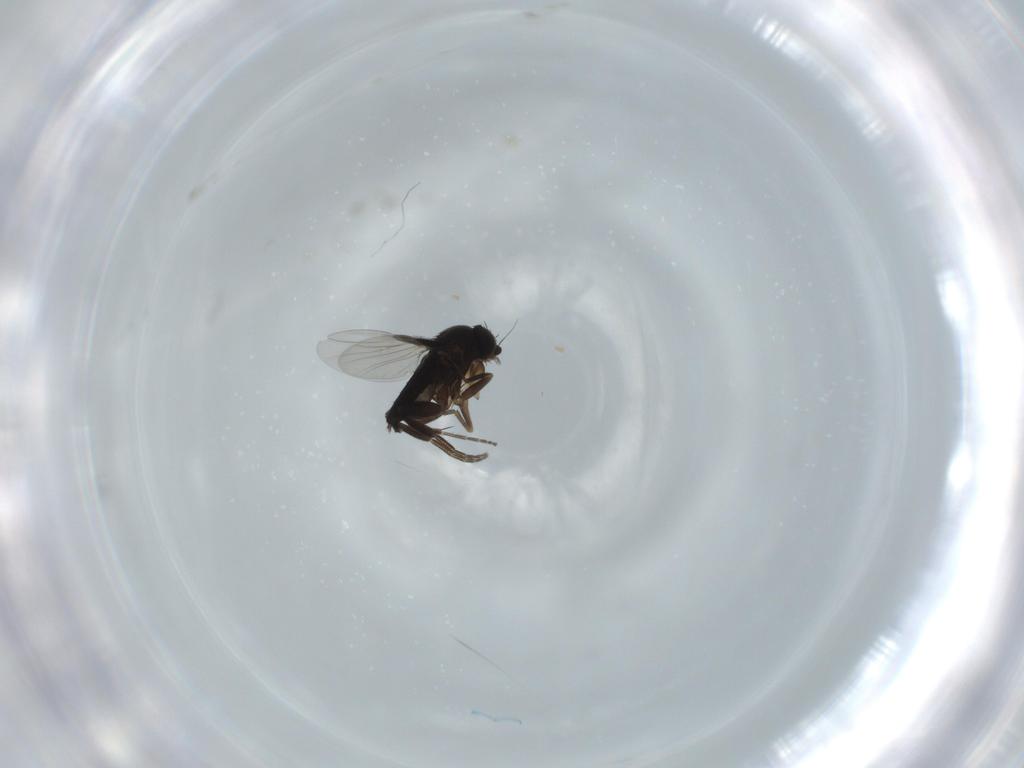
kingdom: Animalia
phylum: Arthropoda
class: Insecta
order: Diptera
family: Phoridae
